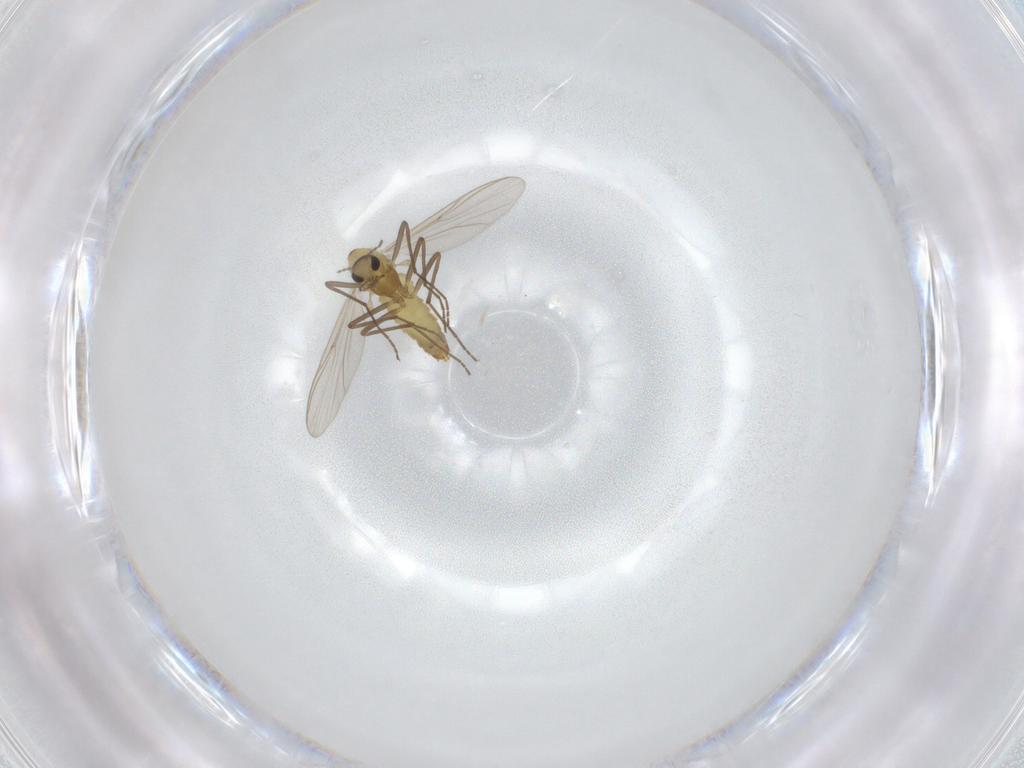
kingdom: Animalia
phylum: Arthropoda
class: Insecta
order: Diptera
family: Chironomidae
